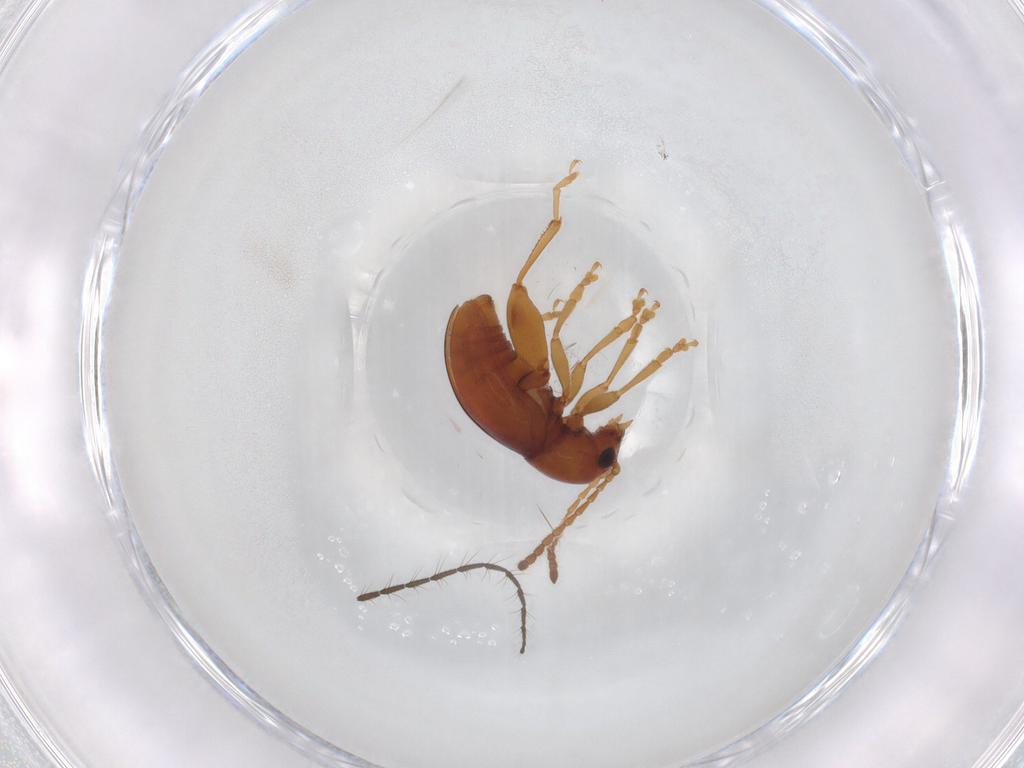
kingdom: Animalia
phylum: Arthropoda
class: Insecta
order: Coleoptera
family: Chrysomelidae
